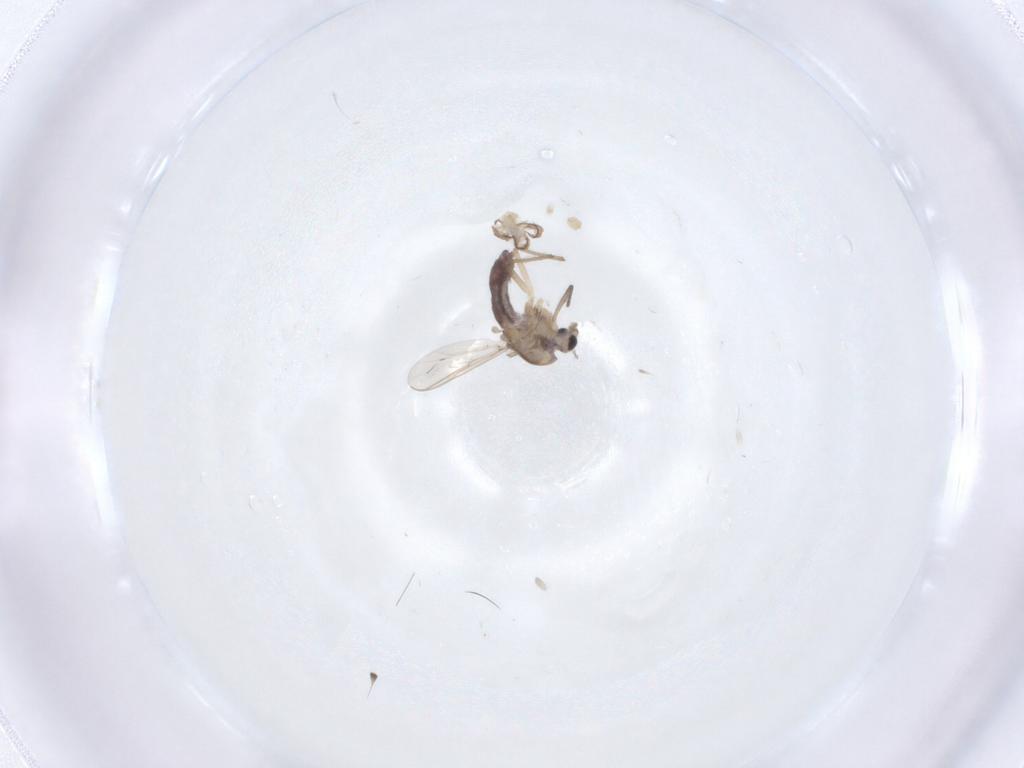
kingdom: Animalia
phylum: Arthropoda
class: Insecta
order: Diptera
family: Chironomidae
